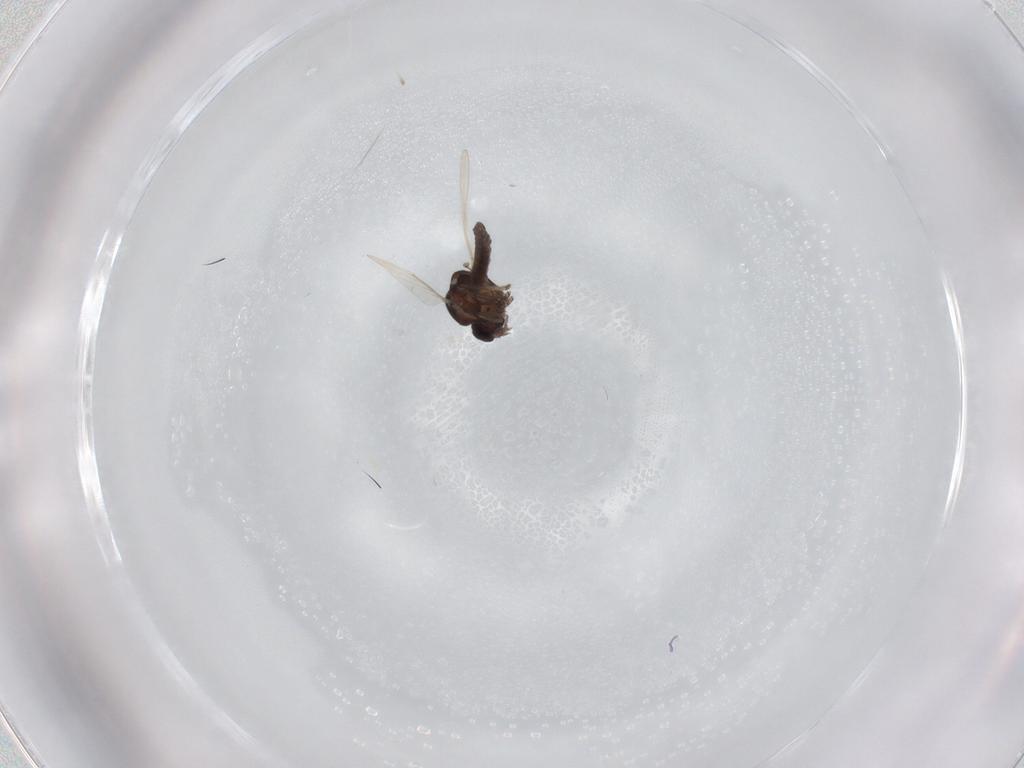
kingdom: Animalia
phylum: Arthropoda
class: Insecta
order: Diptera
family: Ceratopogonidae
